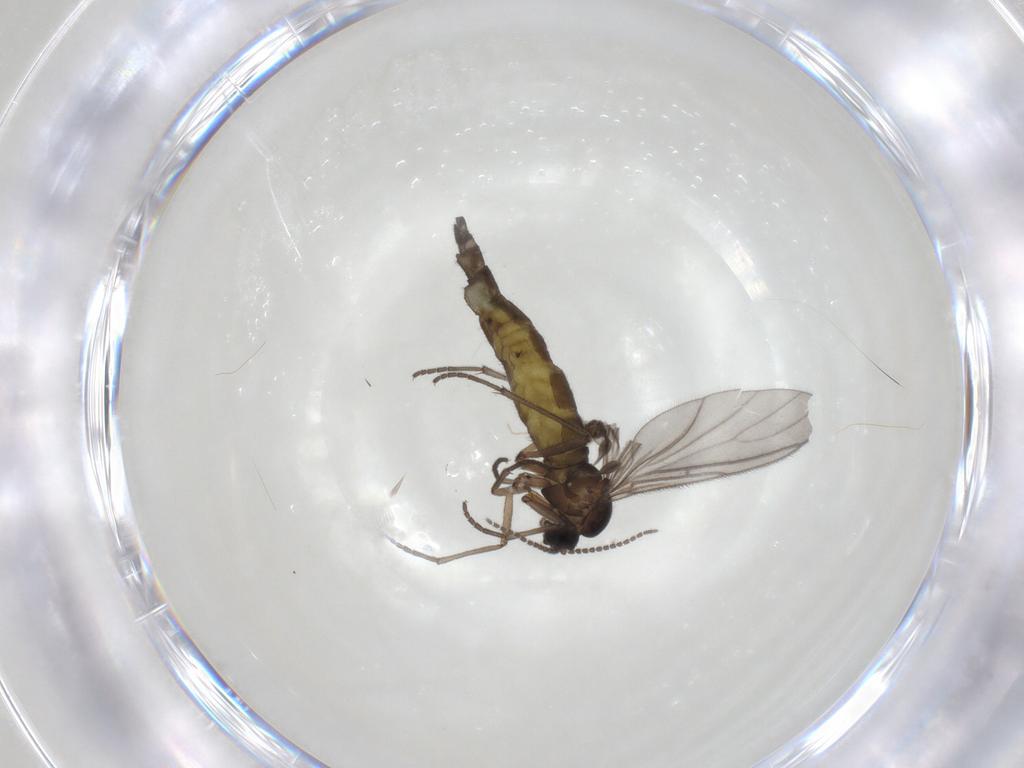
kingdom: Animalia
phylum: Arthropoda
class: Insecta
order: Diptera
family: Sciaridae
